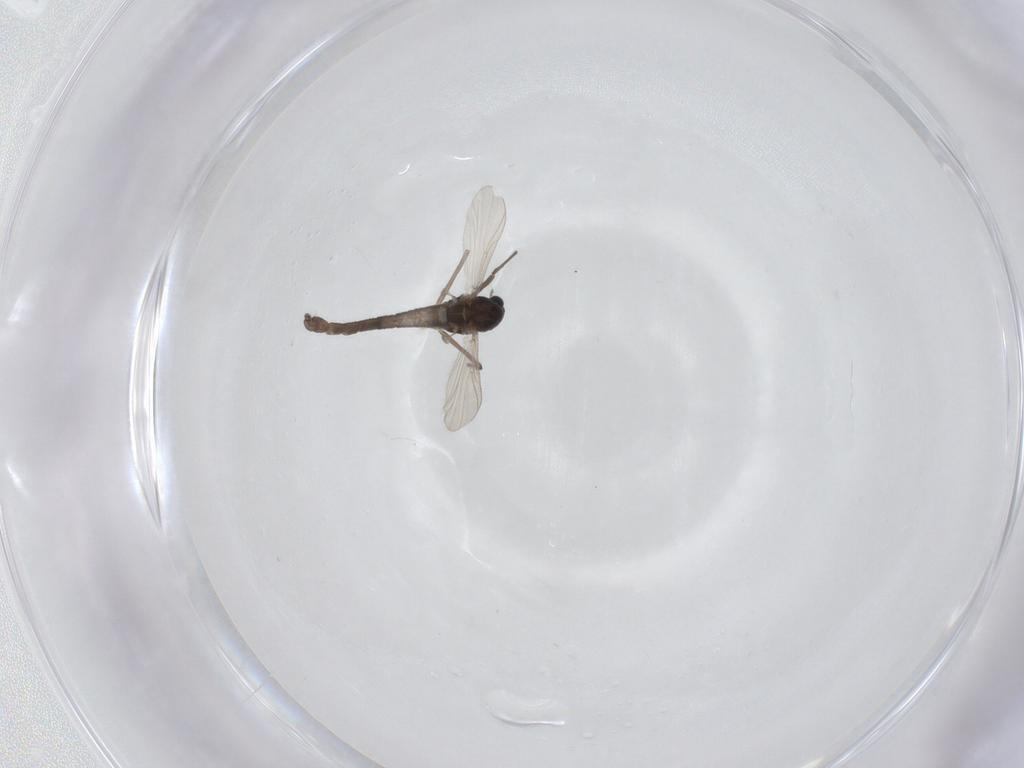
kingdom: Animalia
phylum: Arthropoda
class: Insecta
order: Diptera
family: Chironomidae
